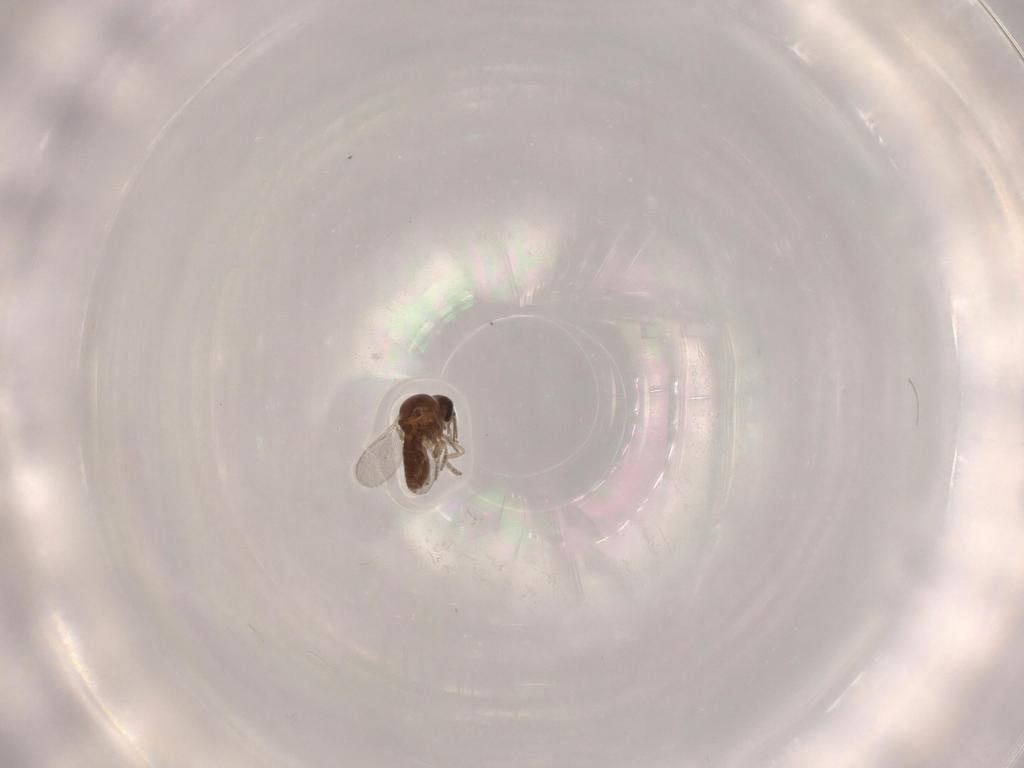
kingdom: Animalia
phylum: Arthropoda
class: Insecta
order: Diptera
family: Ceratopogonidae
